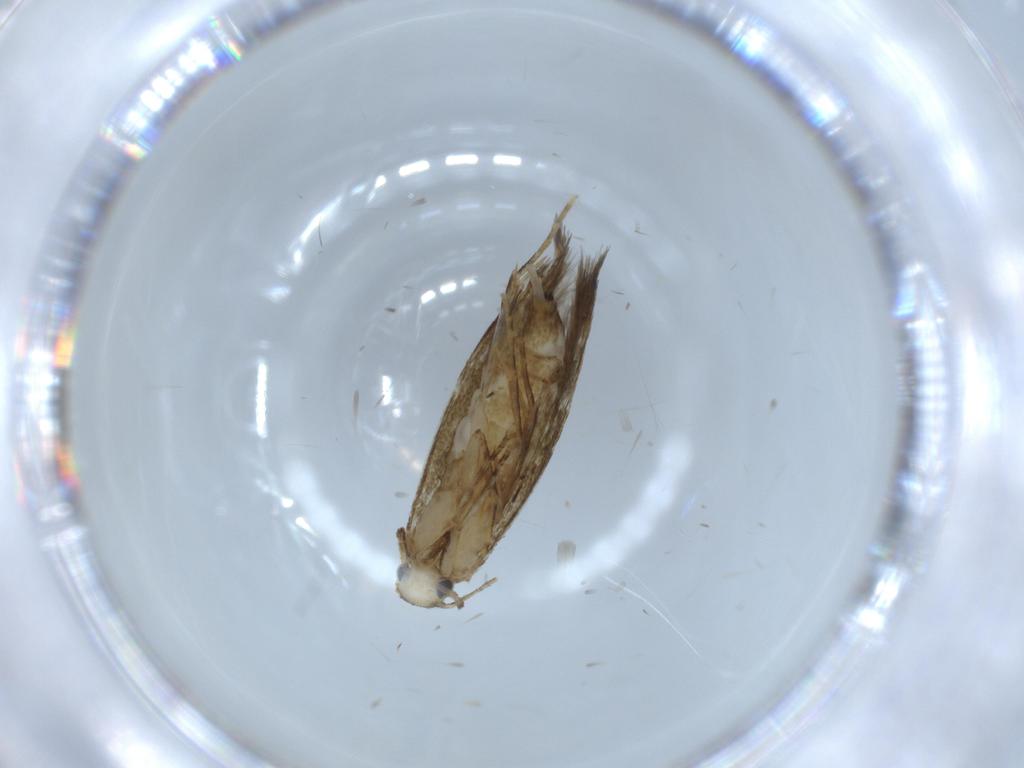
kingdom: Animalia
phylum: Arthropoda
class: Insecta
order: Lepidoptera
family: Tineidae
